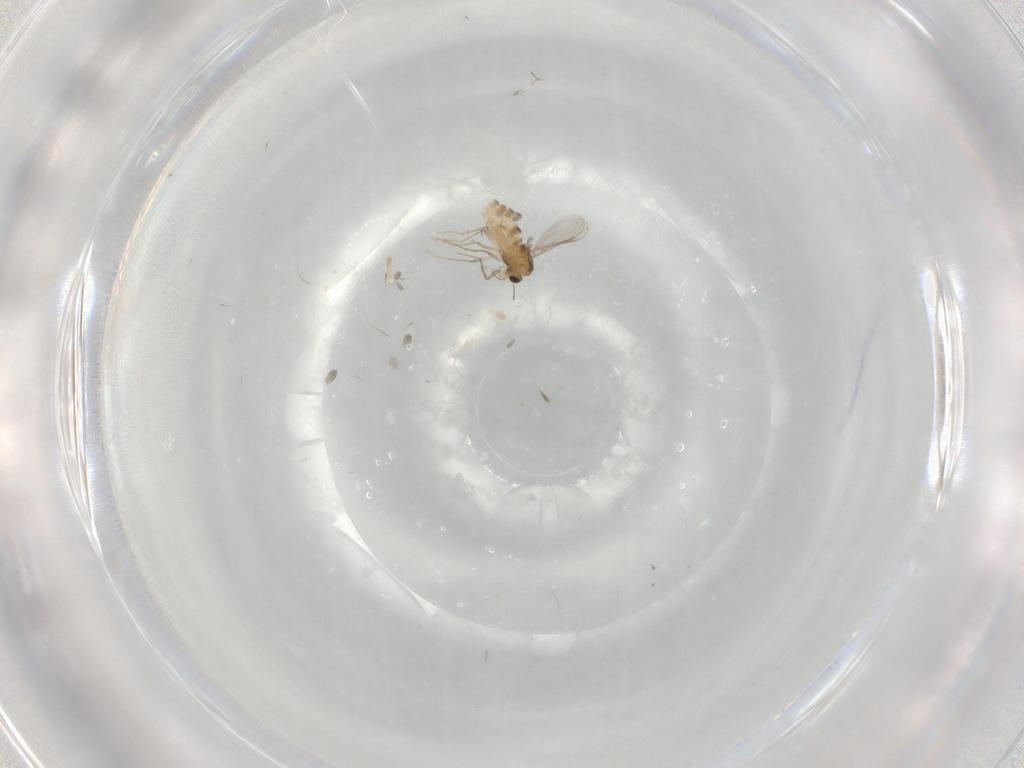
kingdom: Animalia
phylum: Arthropoda
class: Insecta
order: Diptera
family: Chironomidae
